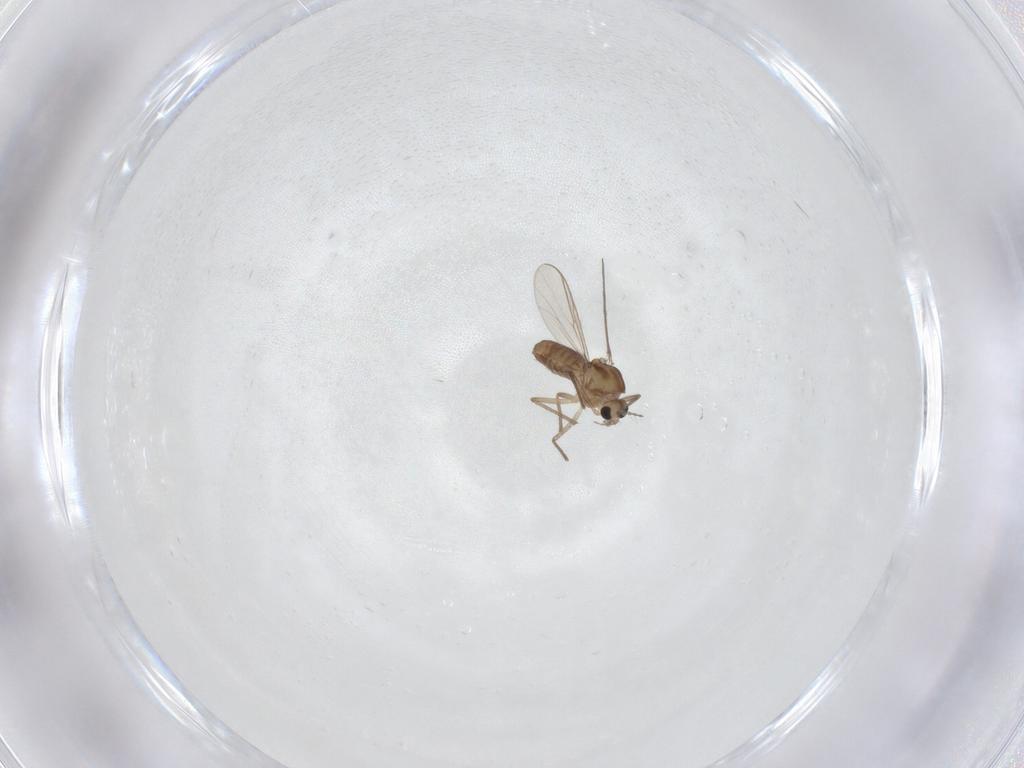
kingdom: Animalia
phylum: Arthropoda
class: Insecta
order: Diptera
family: Chironomidae
